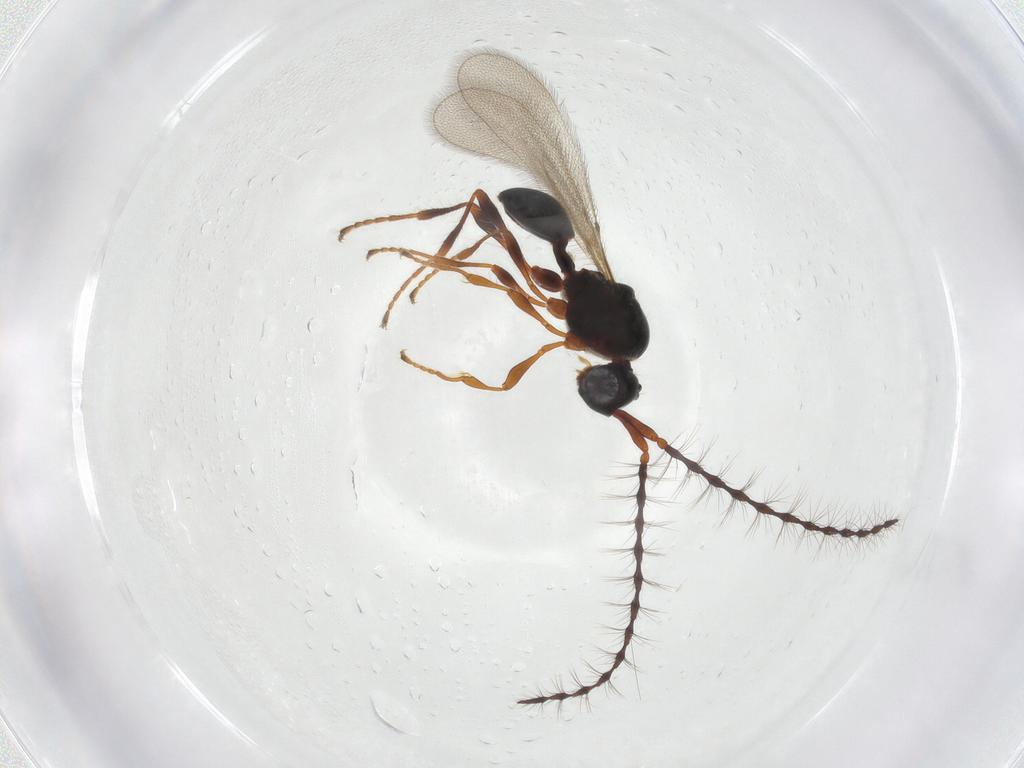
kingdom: Animalia
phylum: Arthropoda
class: Insecta
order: Hymenoptera
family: Diapriidae
